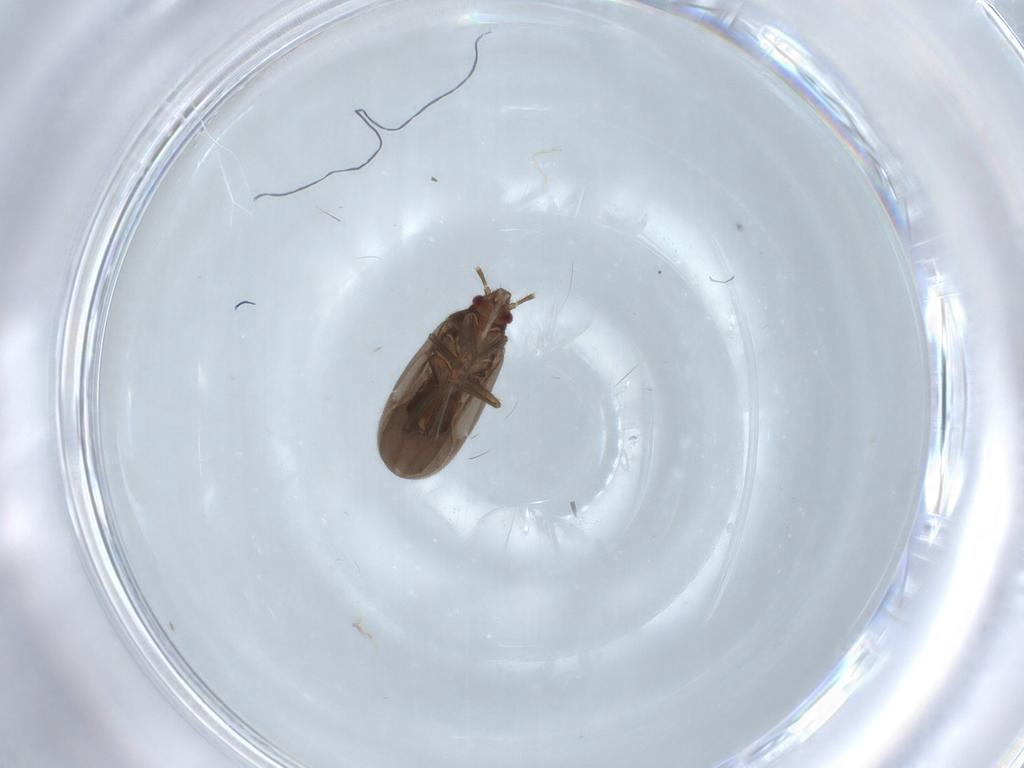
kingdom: Animalia
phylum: Arthropoda
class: Insecta
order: Hemiptera
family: Ceratocombidae
